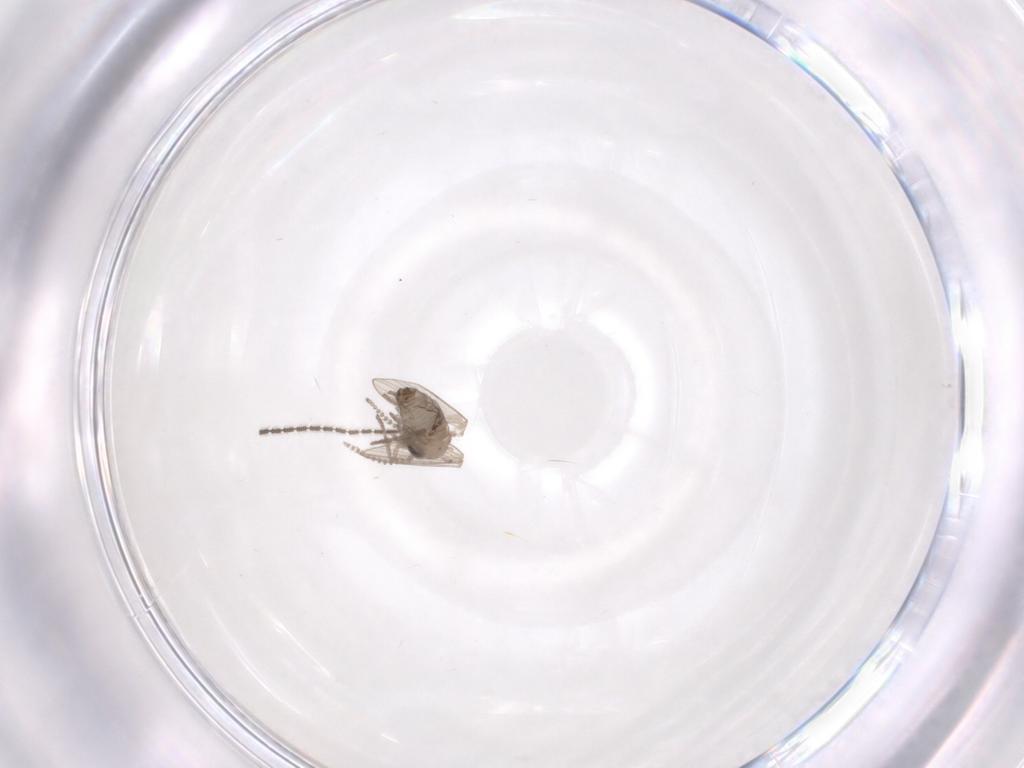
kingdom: Animalia
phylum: Arthropoda
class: Insecta
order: Diptera
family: Psychodidae
